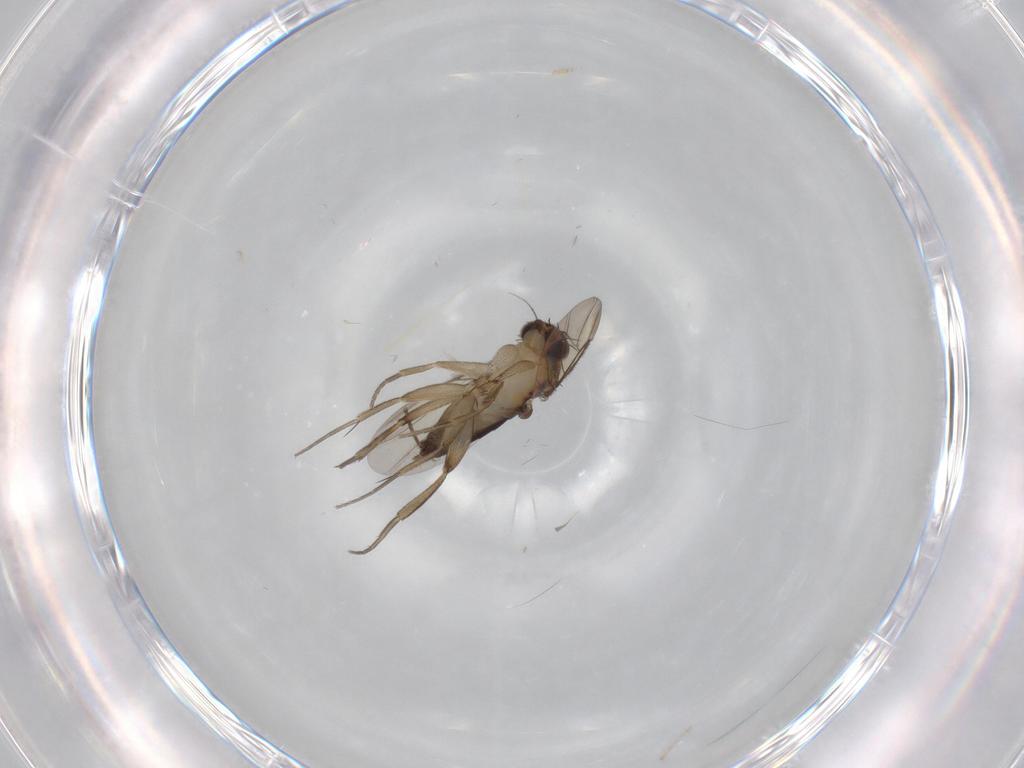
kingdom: Animalia
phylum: Arthropoda
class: Insecta
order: Diptera
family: Phoridae
